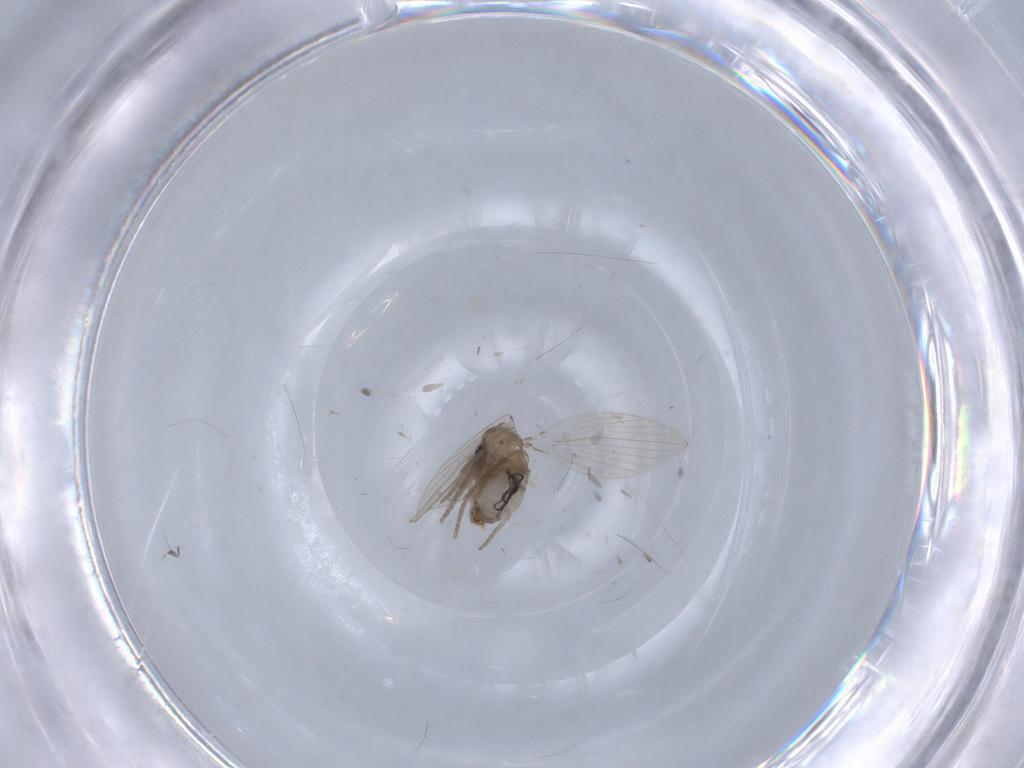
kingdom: Animalia
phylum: Arthropoda
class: Insecta
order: Diptera
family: Psychodidae
